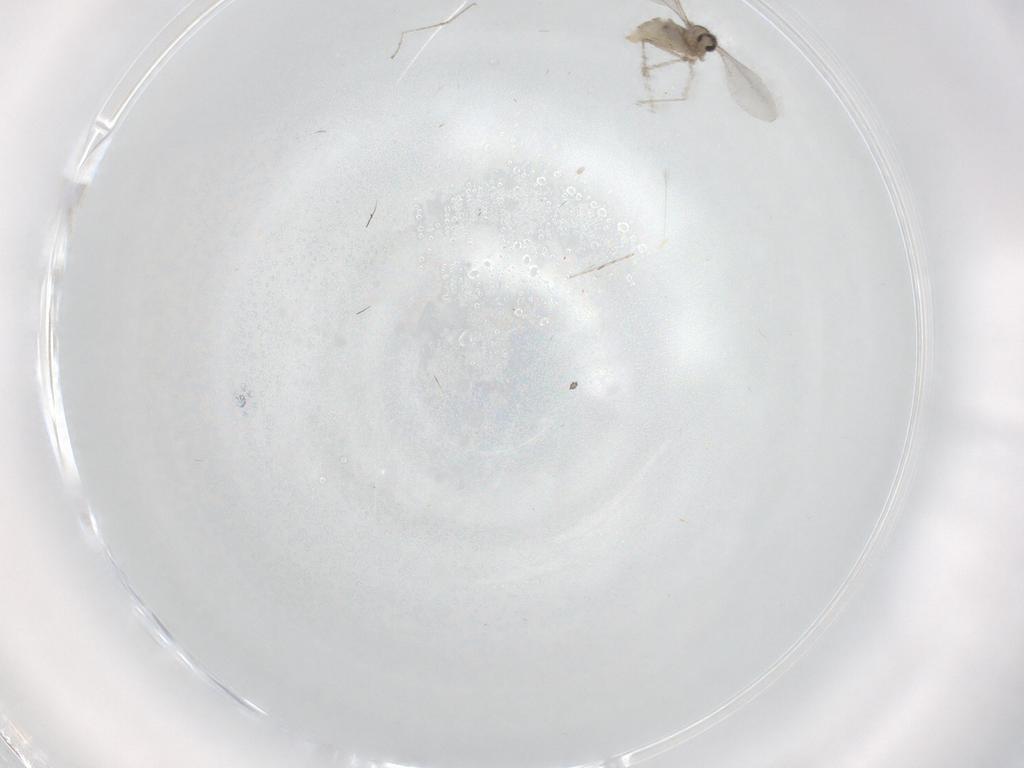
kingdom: Animalia
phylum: Arthropoda
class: Insecta
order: Diptera
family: Cecidomyiidae
